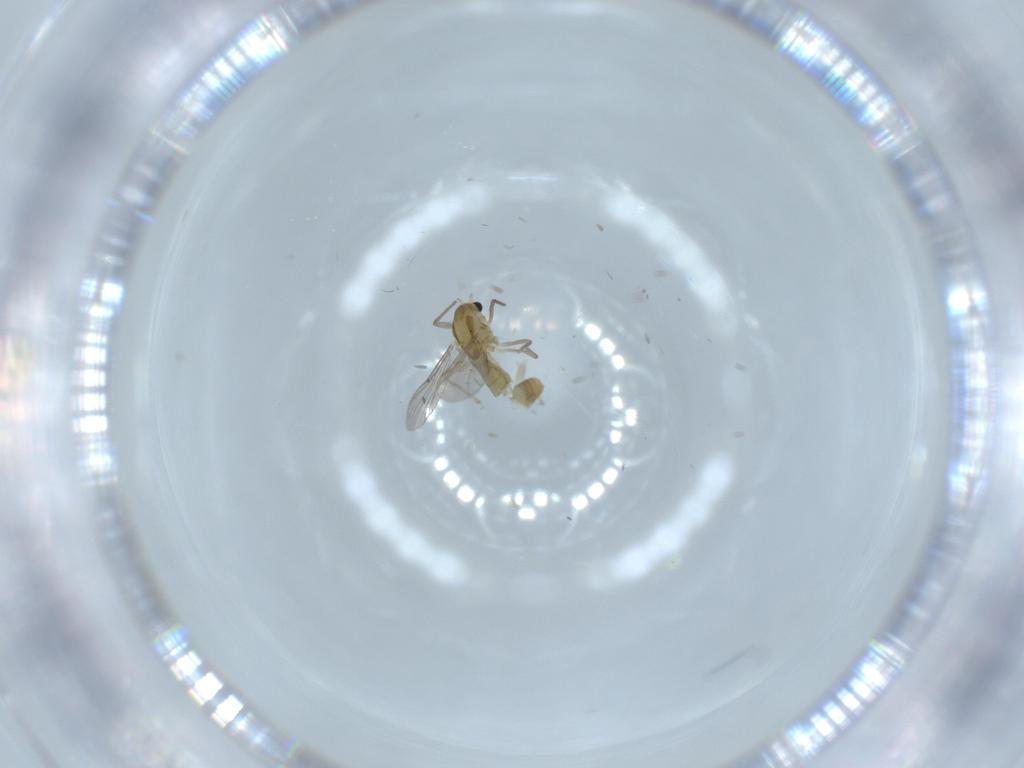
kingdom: Animalia
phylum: Arthropoda
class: Insecta
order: Diptera
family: Chironomidae
